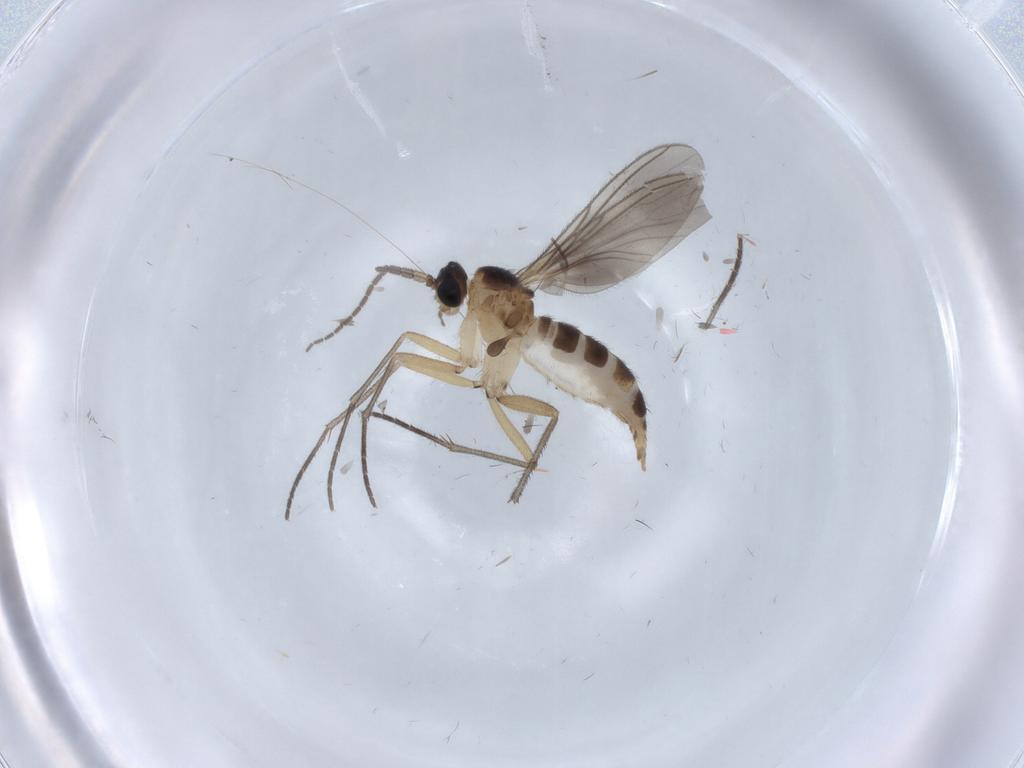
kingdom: Animalia
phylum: Arthropoda
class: Insecta
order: Diptera
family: Sciaridae
